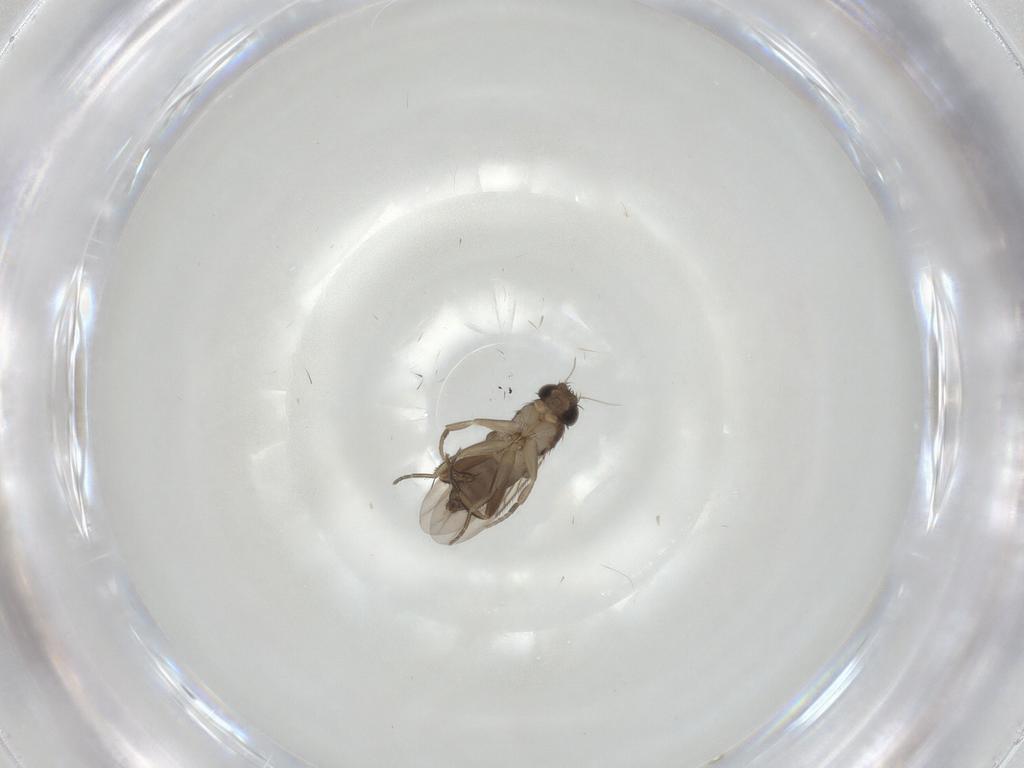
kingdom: Animalia
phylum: Arthropoda
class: Insecta
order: Diptera
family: Phoridae
